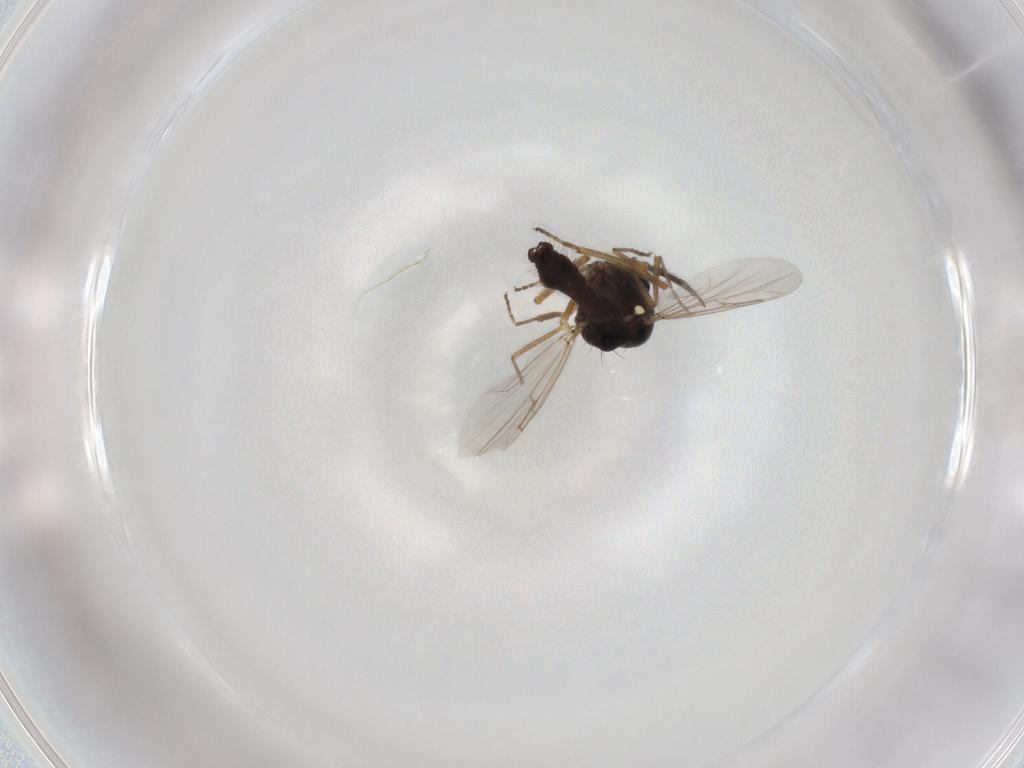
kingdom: Animalia
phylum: Arthropoda
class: Insecta
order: Diptera
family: Ceratopogonidae
